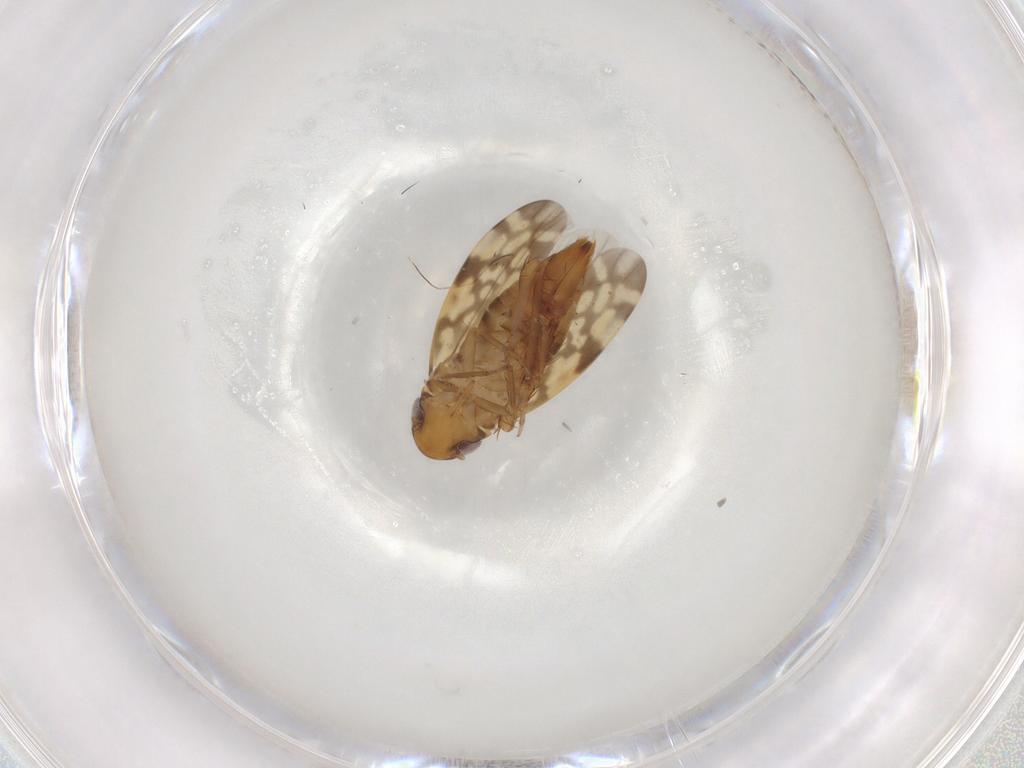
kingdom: Animalia
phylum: Arthropoda
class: Insecta
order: Hemiptera
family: Cicadellidae
